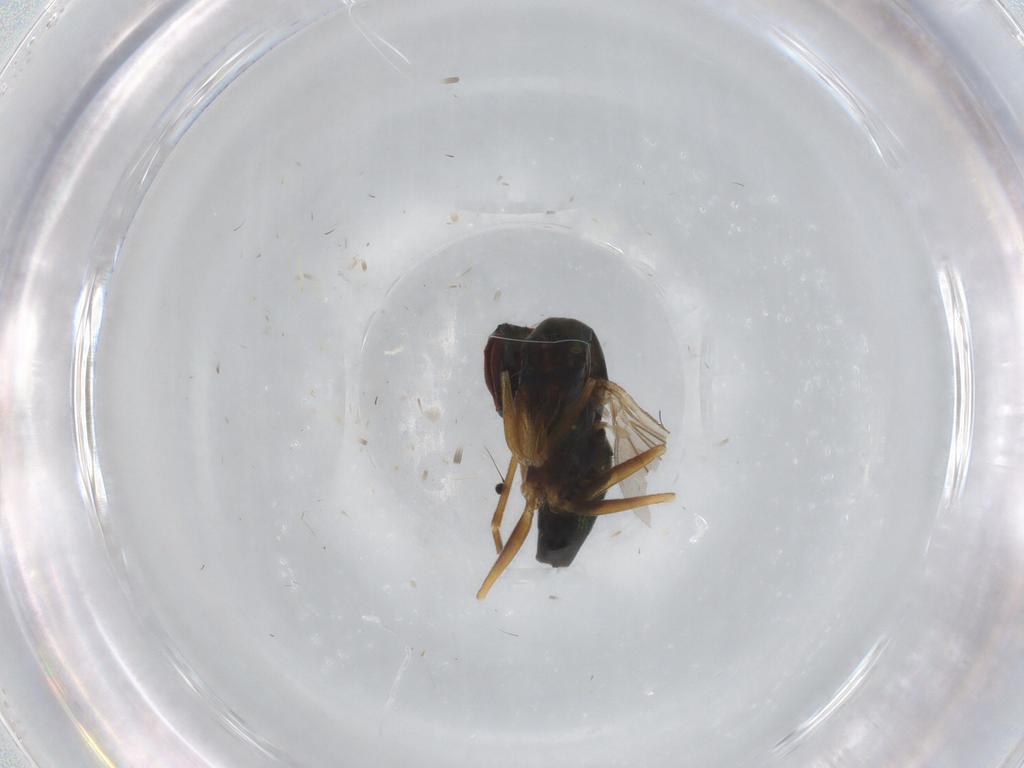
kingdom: Animalia
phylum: Arthropoda
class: Insecta
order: Diptera
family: Dolichopodidae
